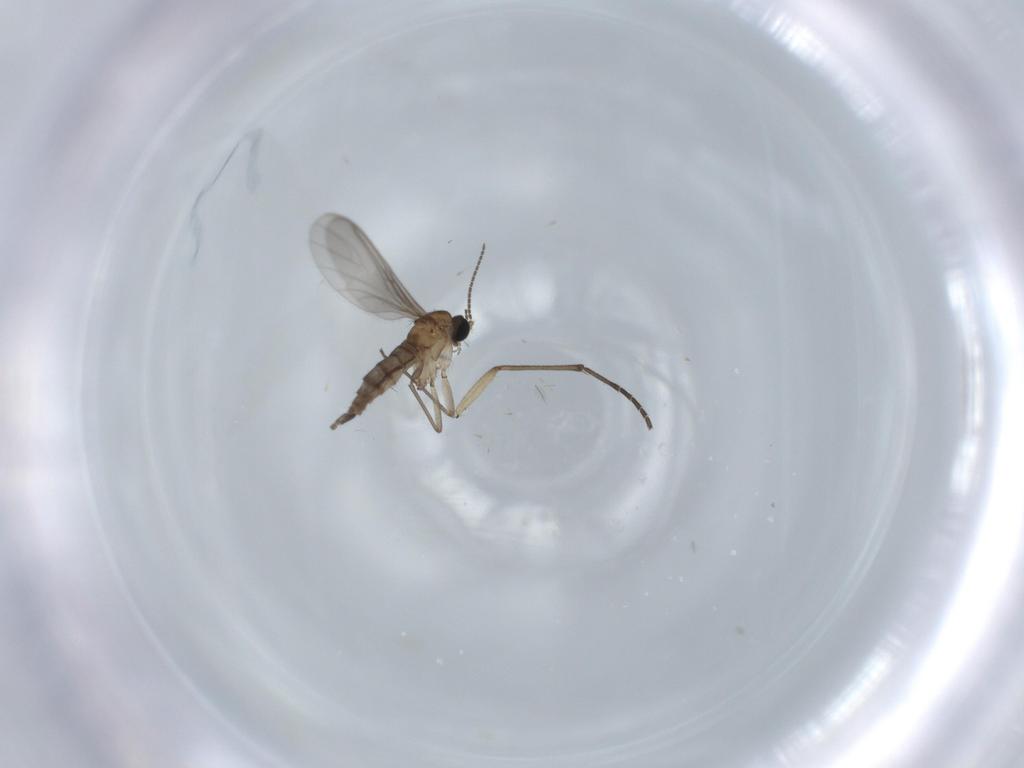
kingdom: Animalia
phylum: Arthropoda
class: Insecta
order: Diptera
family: Sciaridae
